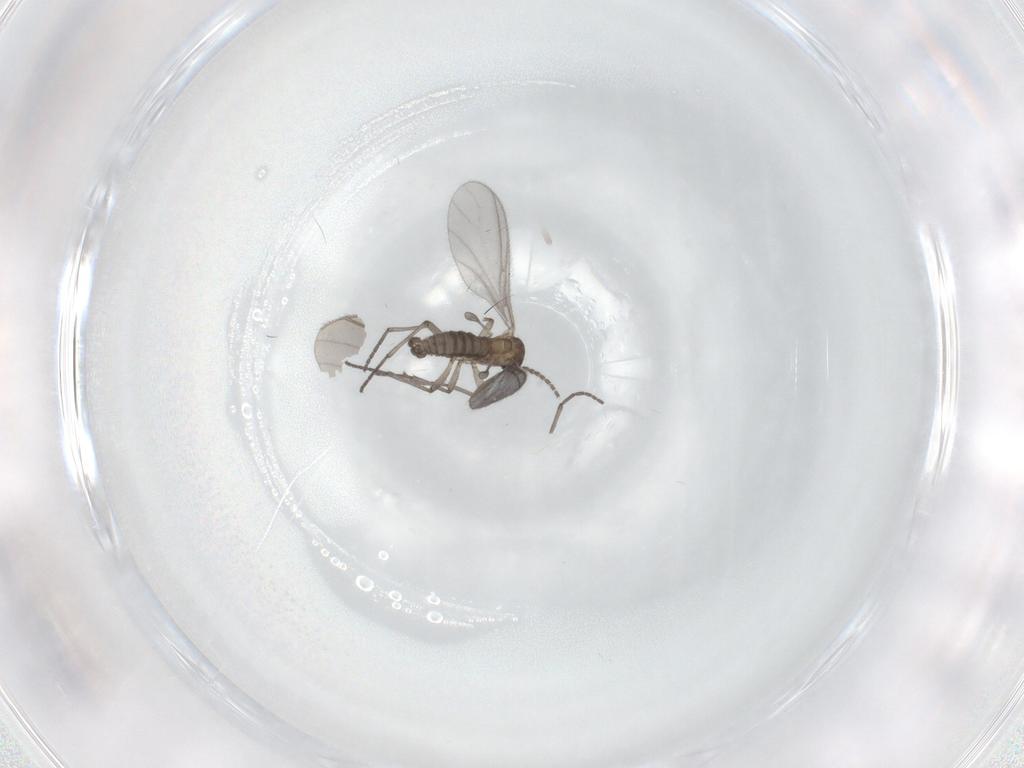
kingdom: Animalia
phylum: Arthropoda
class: Insecta
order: Diptera
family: Sciaridae
